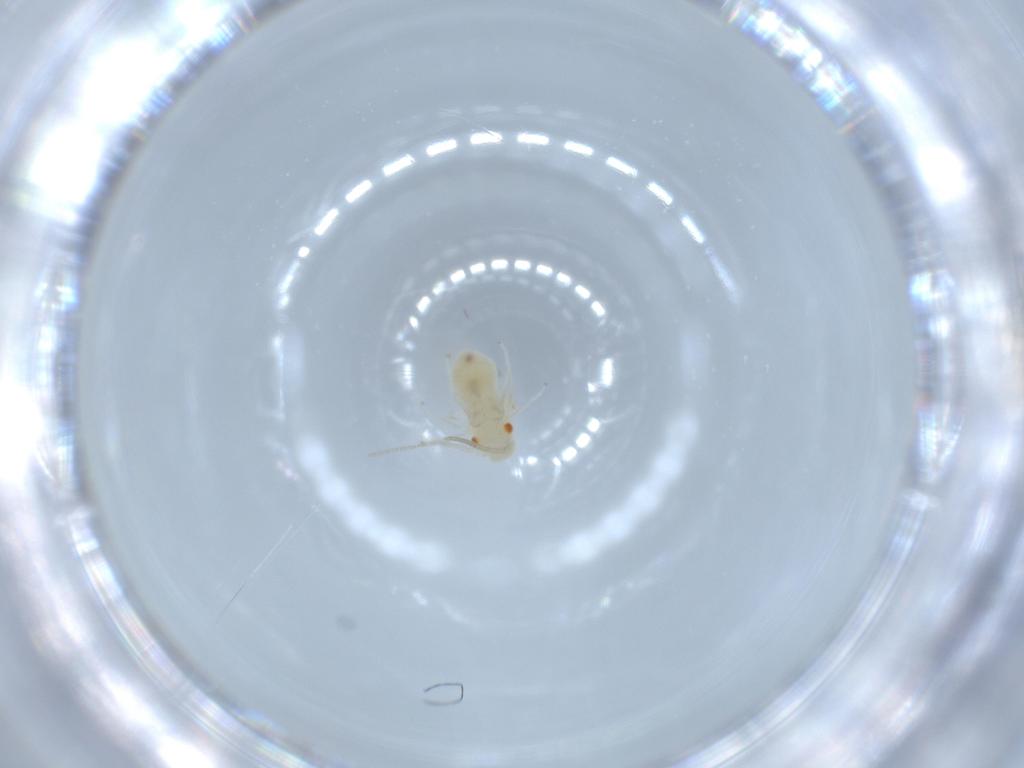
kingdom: Animalia
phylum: Arthropoda
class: Insecta
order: Psocodea
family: Caeciliusidae
